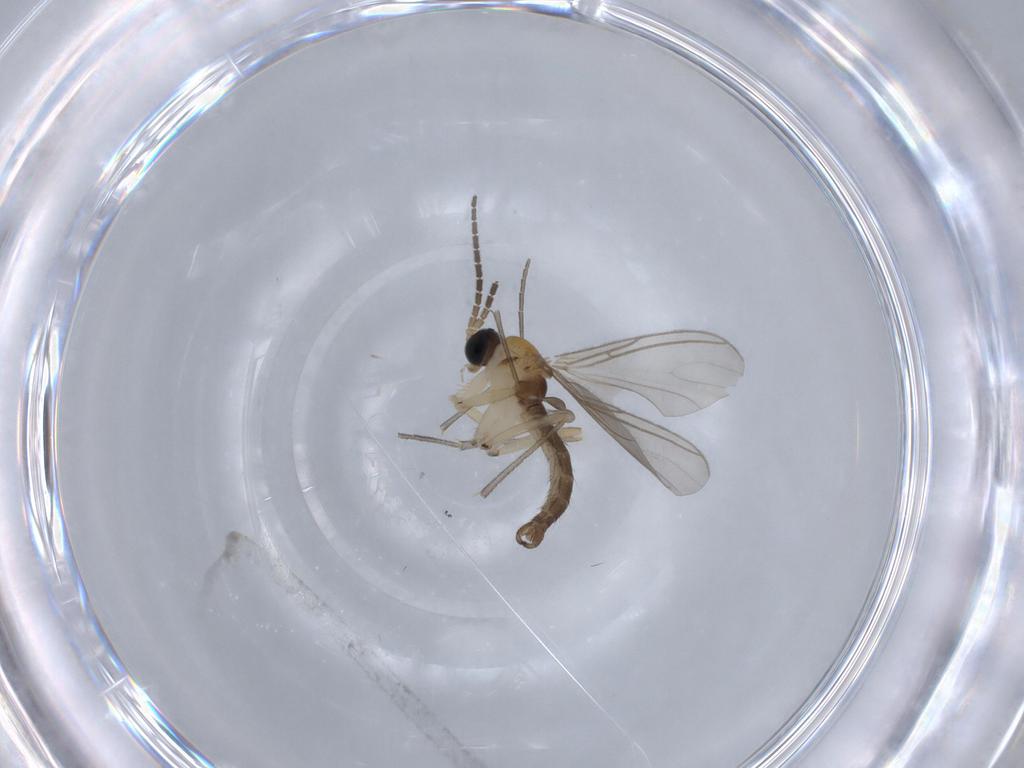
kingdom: Animalia
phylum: Arthropoda
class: Insecta
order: Diptera
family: Sciaridae
